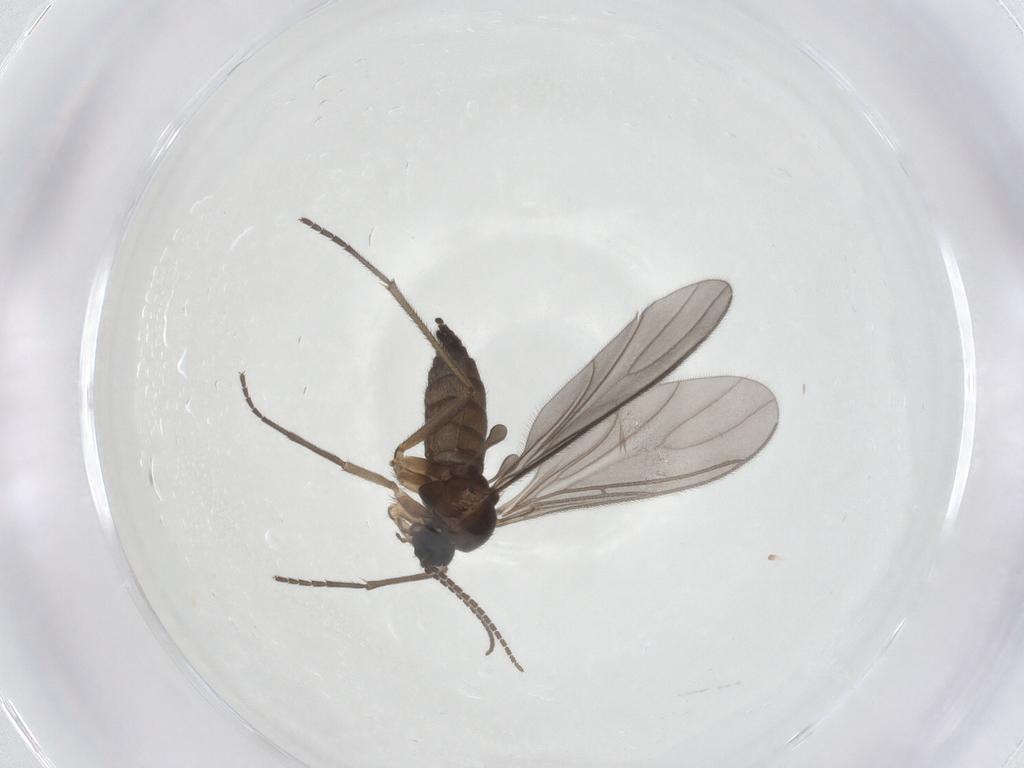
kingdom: Animalia
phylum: Arthropoda
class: Insecta
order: Diptera
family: Sciaridae
